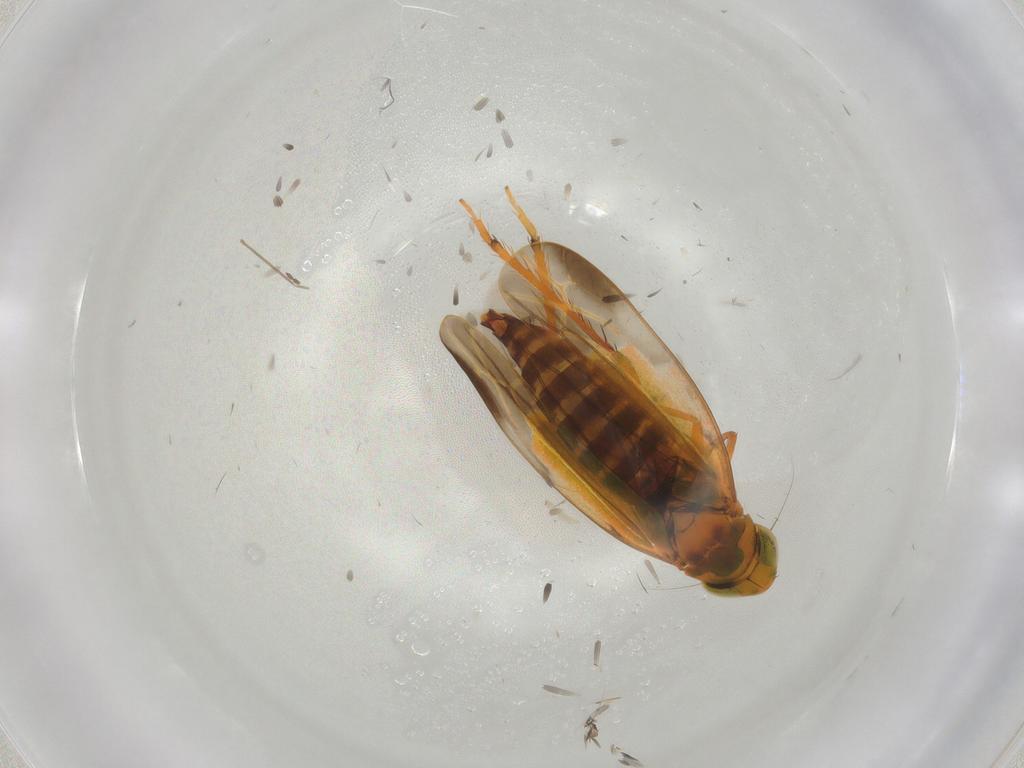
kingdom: Animalia
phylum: Arthropoda
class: Insecta
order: Hemiptera
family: Cicadellidae
